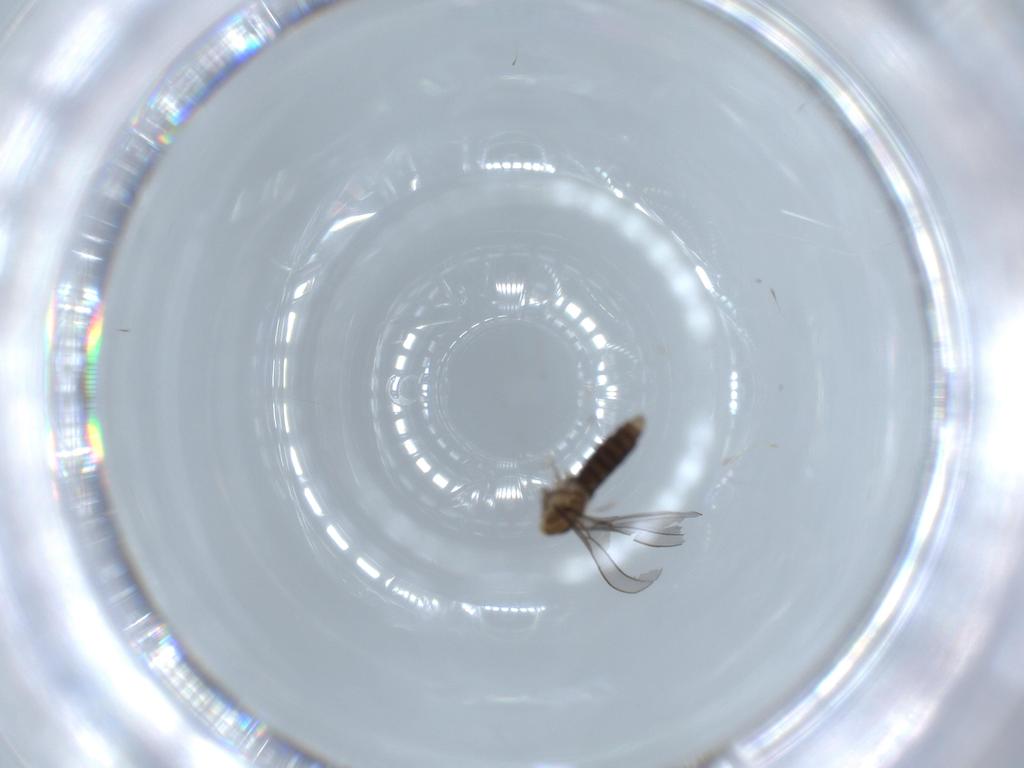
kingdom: Animalia
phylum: Arthropoda
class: Insecta
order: Diptera
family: Cecidomyiidae
